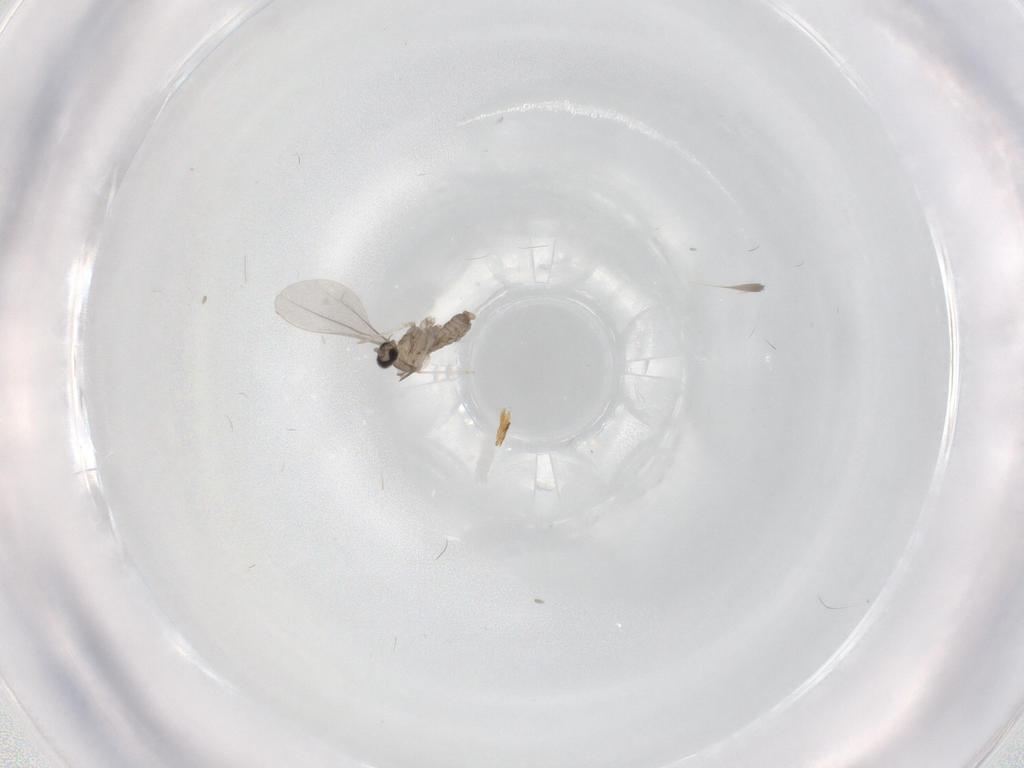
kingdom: Animalia
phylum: Arthropoda
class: Insecta
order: Diptera
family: Cecidomyiidae
